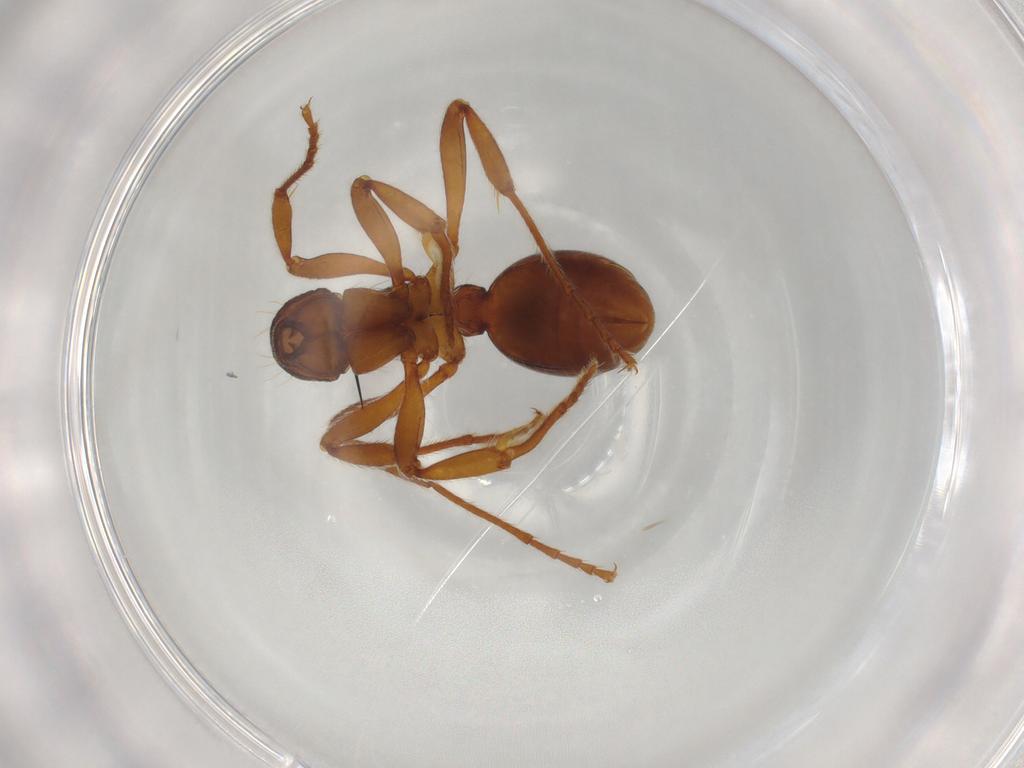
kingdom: Animalia
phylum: Arthropoda
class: Insecta
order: Hymenoptera
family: Formicidae
